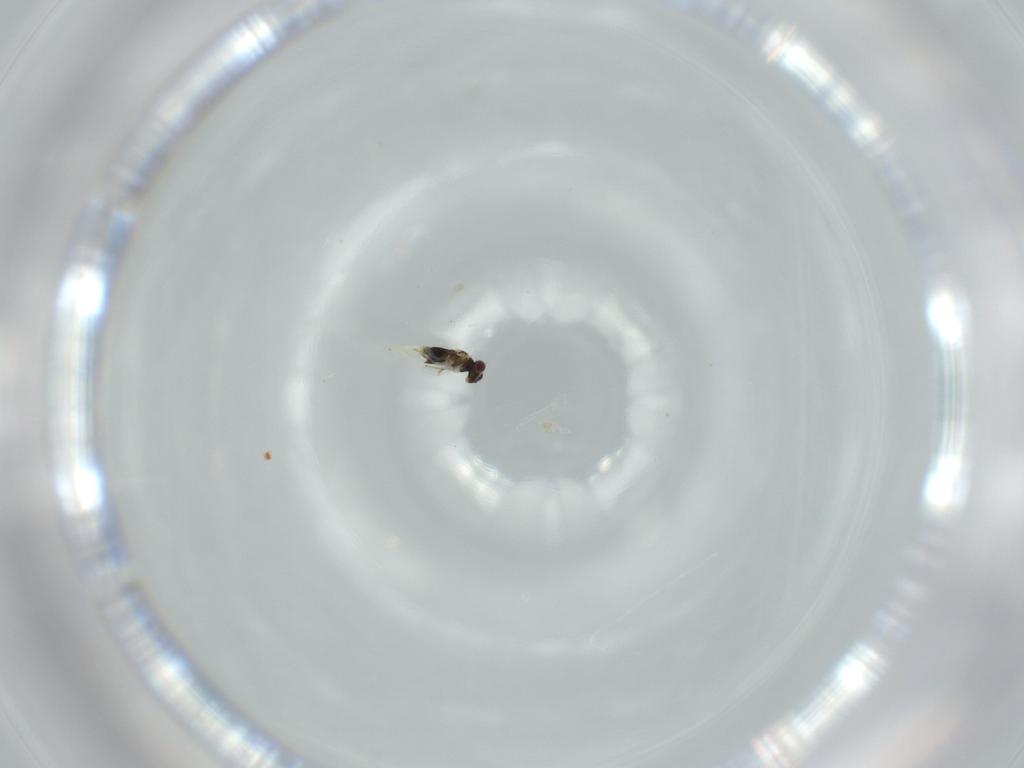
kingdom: Animalia
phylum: Arthropoda
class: Insecta
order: Hymenoptera
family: Aphelinidae
